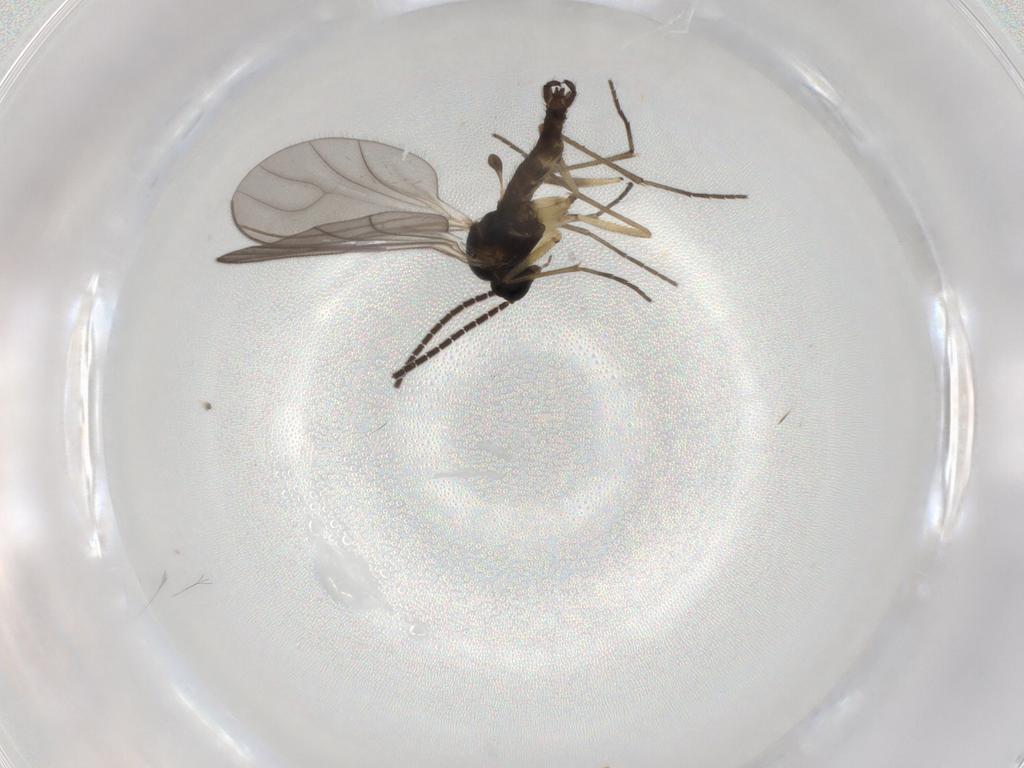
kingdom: Animalia
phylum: Arthropoda
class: Insecta
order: Diptera
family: Sciaridae
